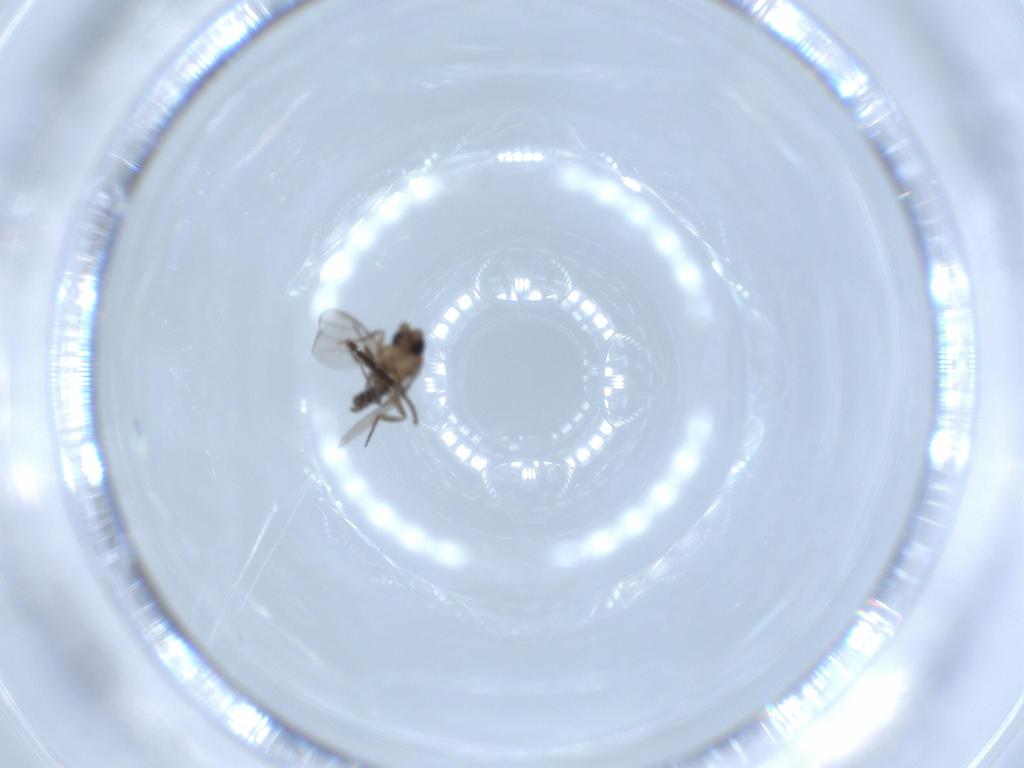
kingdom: Animalia
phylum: Arthropoda
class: Insecta
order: Diptera
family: Sciaridae
